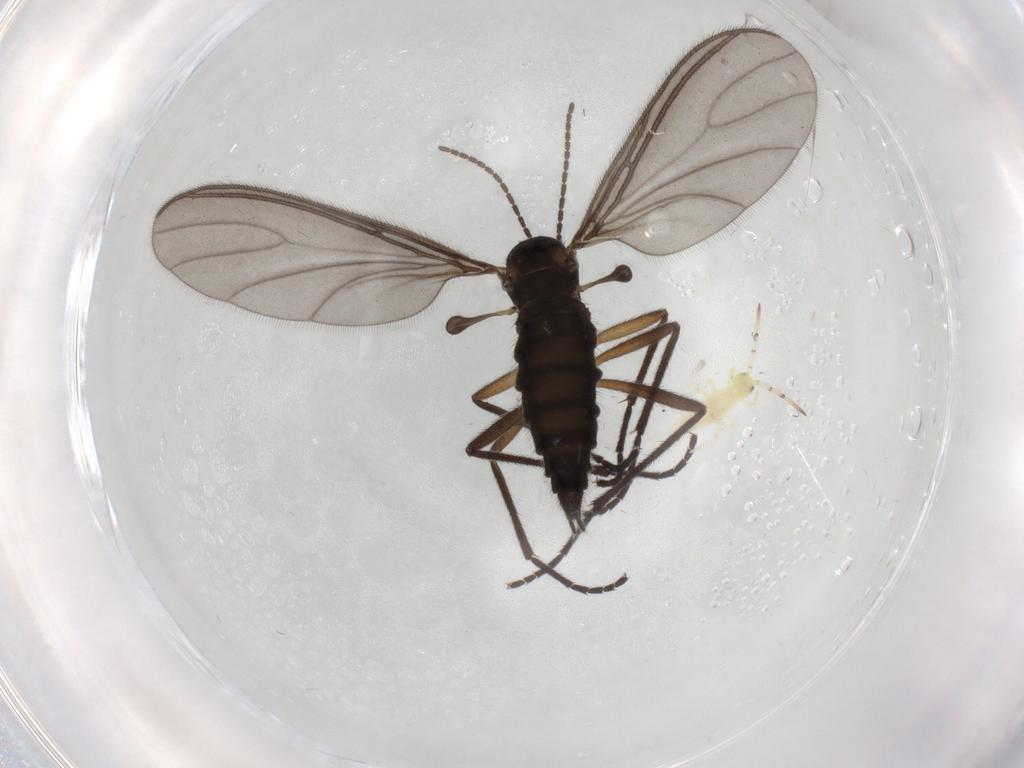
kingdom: Animalia
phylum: Arthropoda
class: Insecta
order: Diptera
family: Sciaridae
